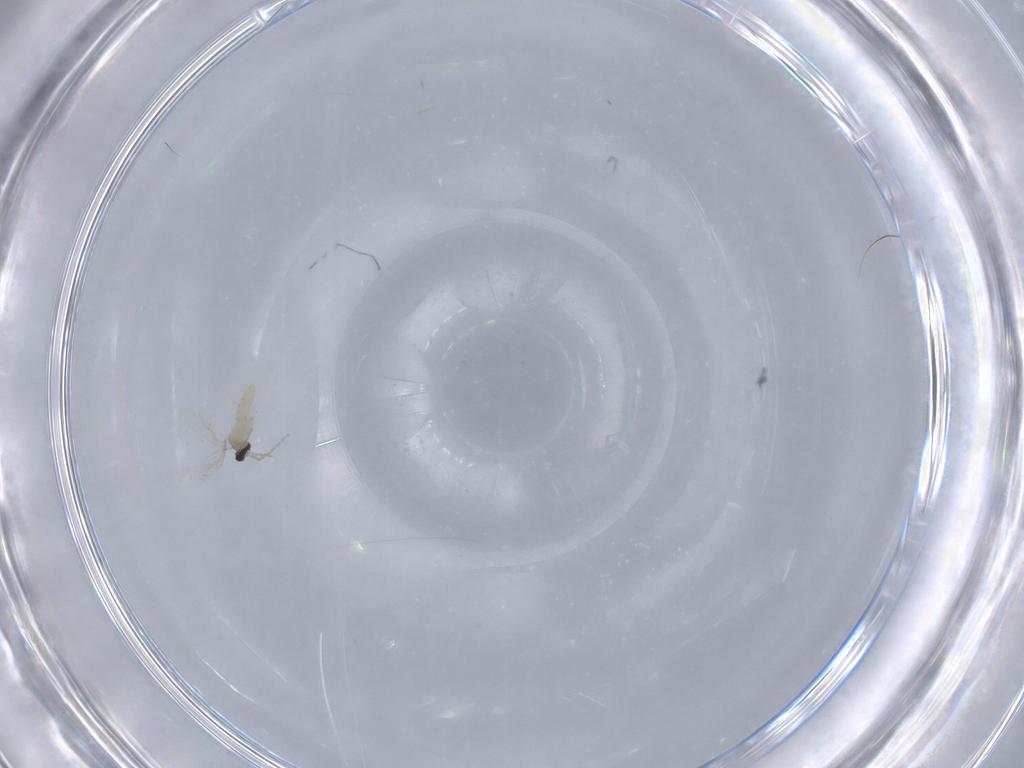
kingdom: Animalia
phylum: Arthropoda
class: Insecta
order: Diptera
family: Cecidomyiidae
